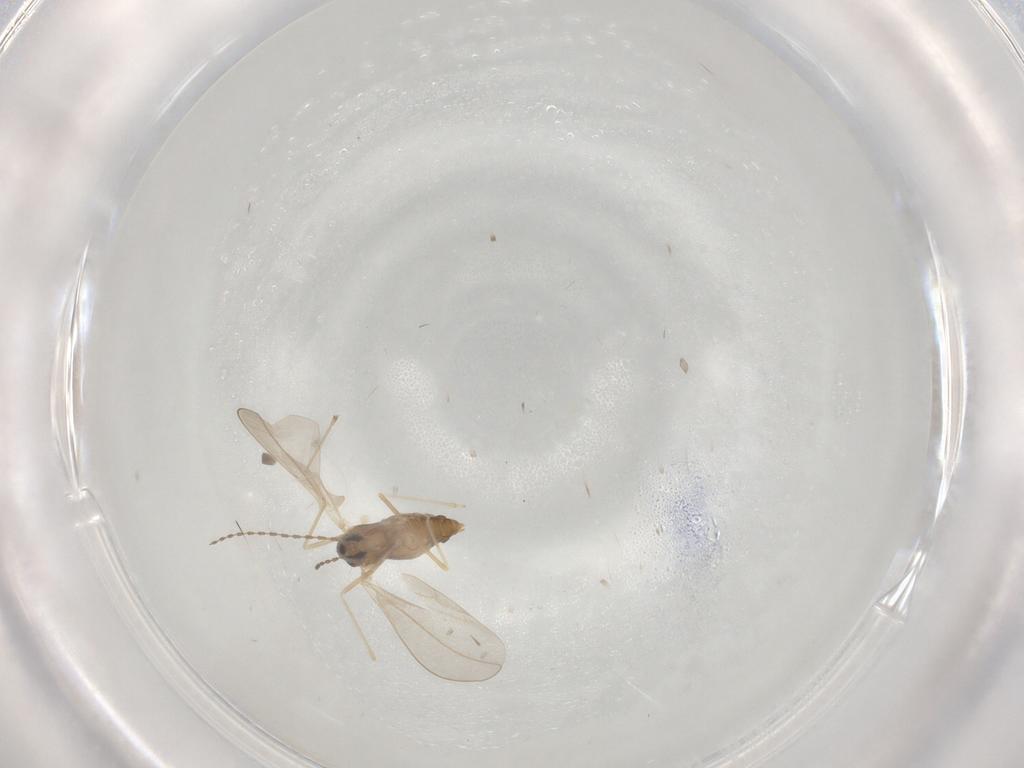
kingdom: Animalia
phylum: Arthropoda
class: Insecta
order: Diptera
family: Cecidomyiidae
